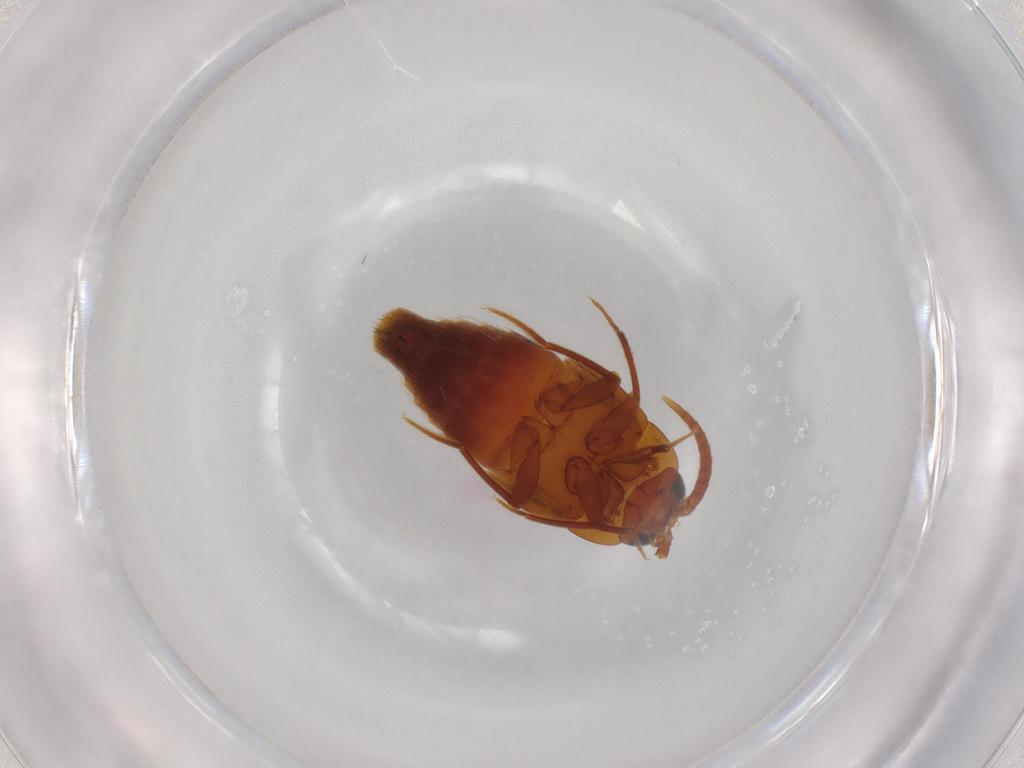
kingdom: Animalia
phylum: Arthropoda
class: Insecta
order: Coleoptera
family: Staphylinidae
